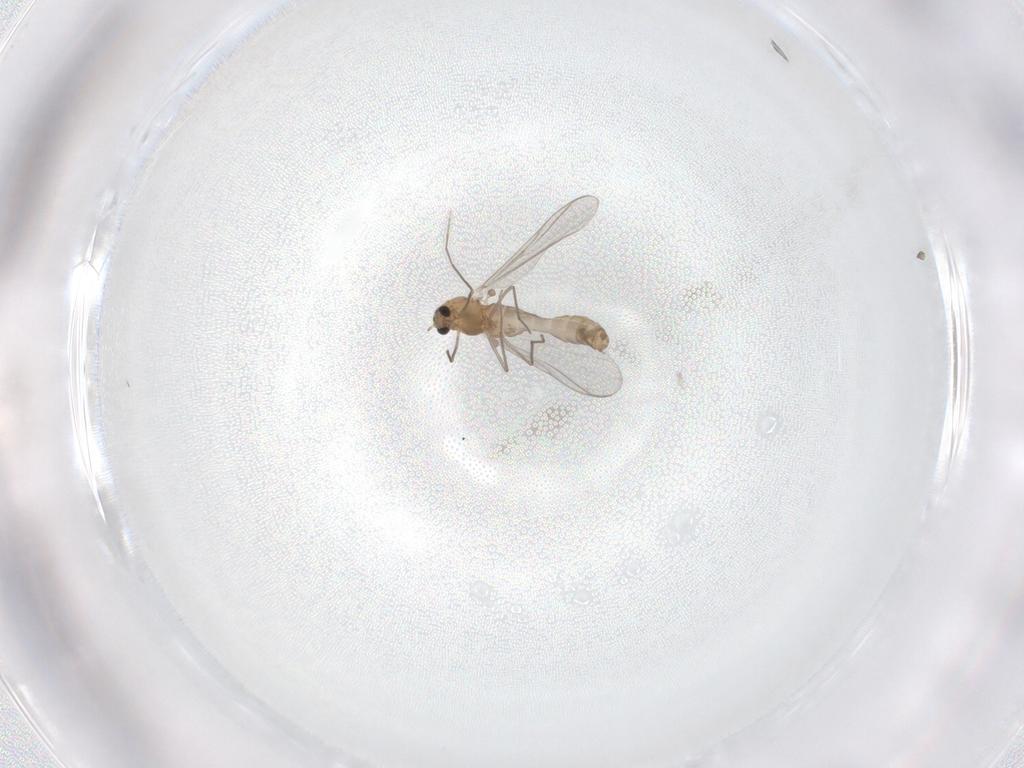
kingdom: Animalia
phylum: Arthropoda
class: Insecta
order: Diptera
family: Chironomidae
